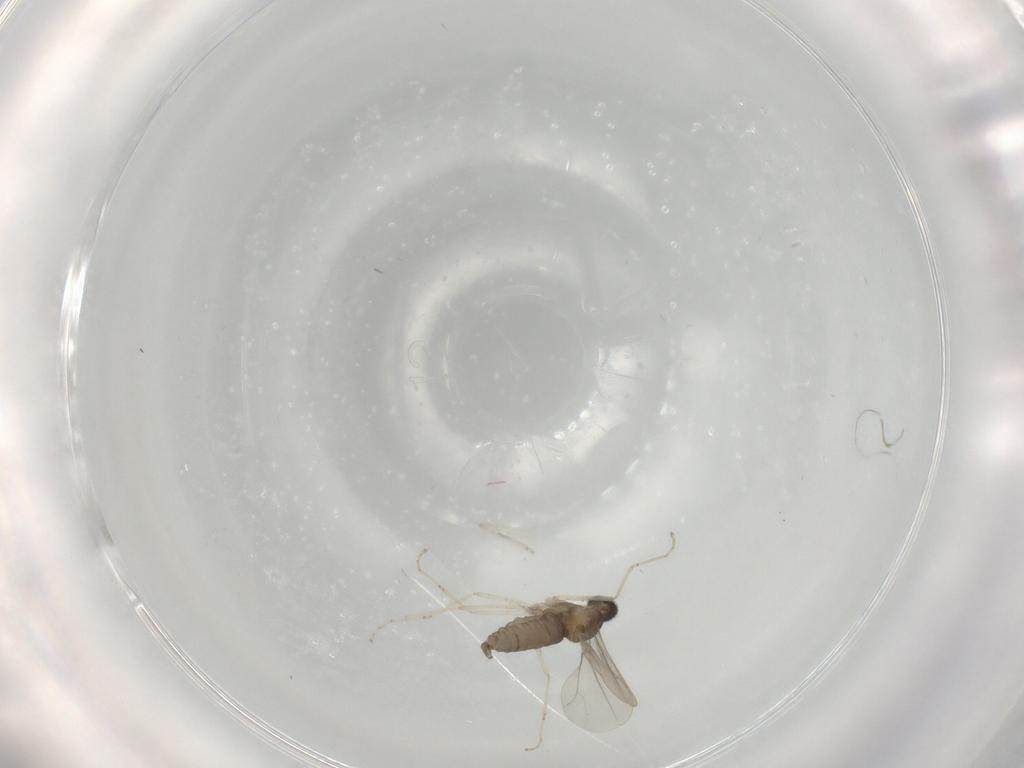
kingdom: Animalia
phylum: Arthropoda
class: Insecta
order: Diptera
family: Cecidomyiidae
